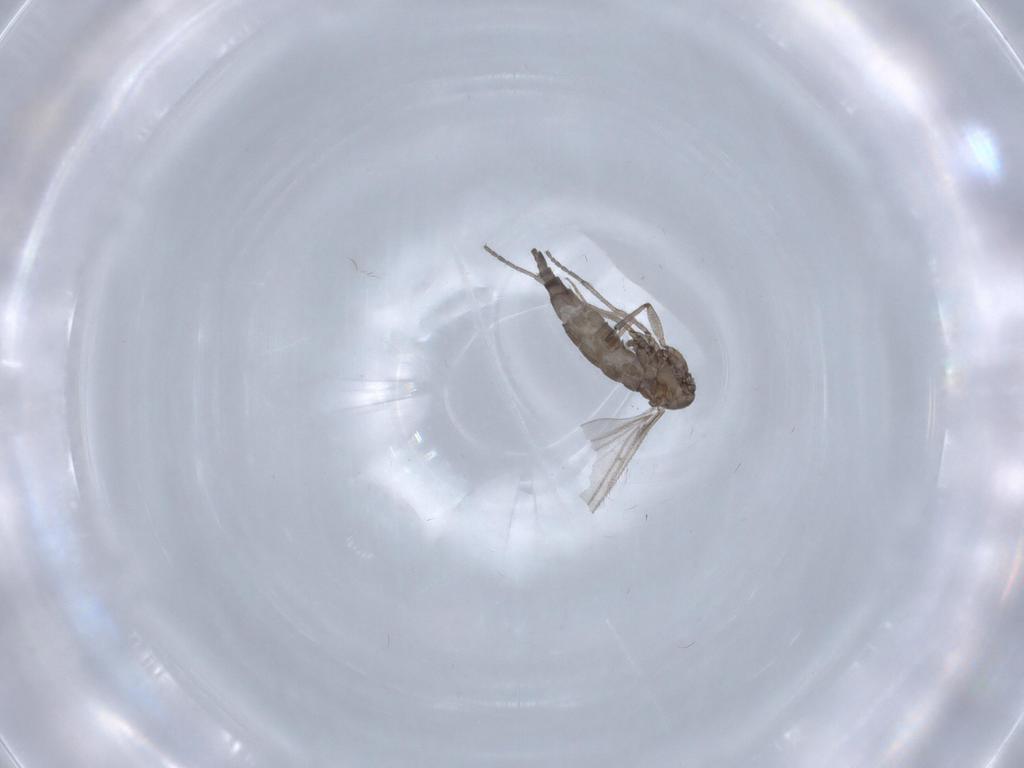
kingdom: Animalia
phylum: Arthropoda
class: Insecta
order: Diptera
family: Sciaridae
